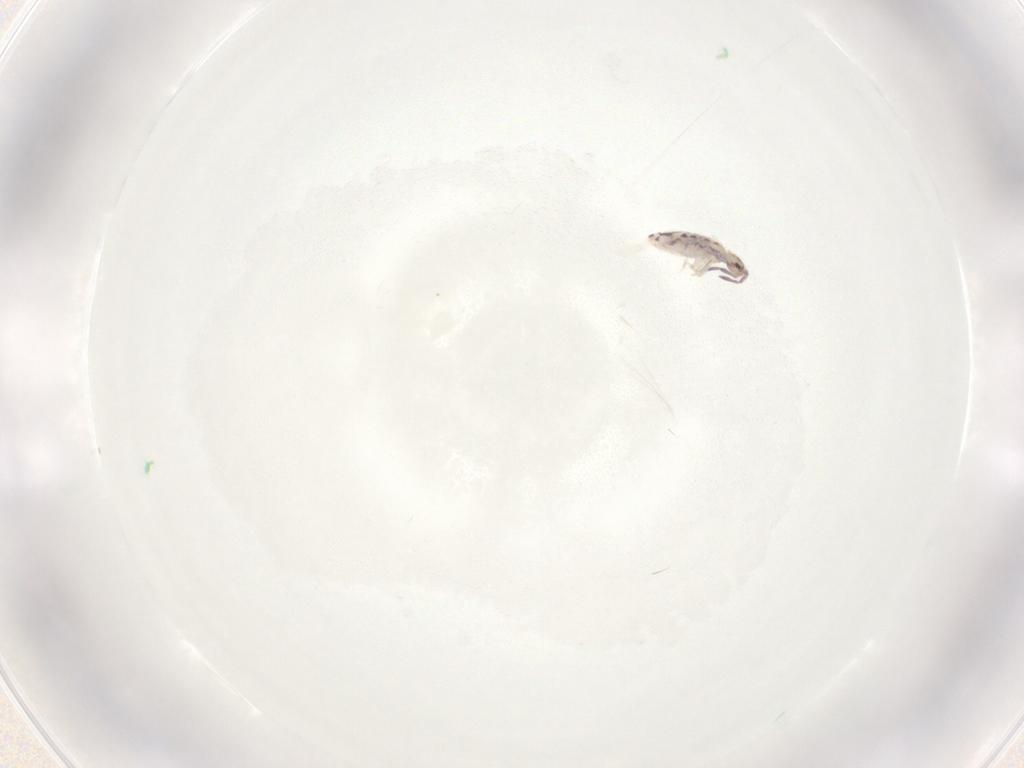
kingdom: Animalia
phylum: Arthropoda
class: Collembola
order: Entomobryomorpha
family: Entomobryidae
